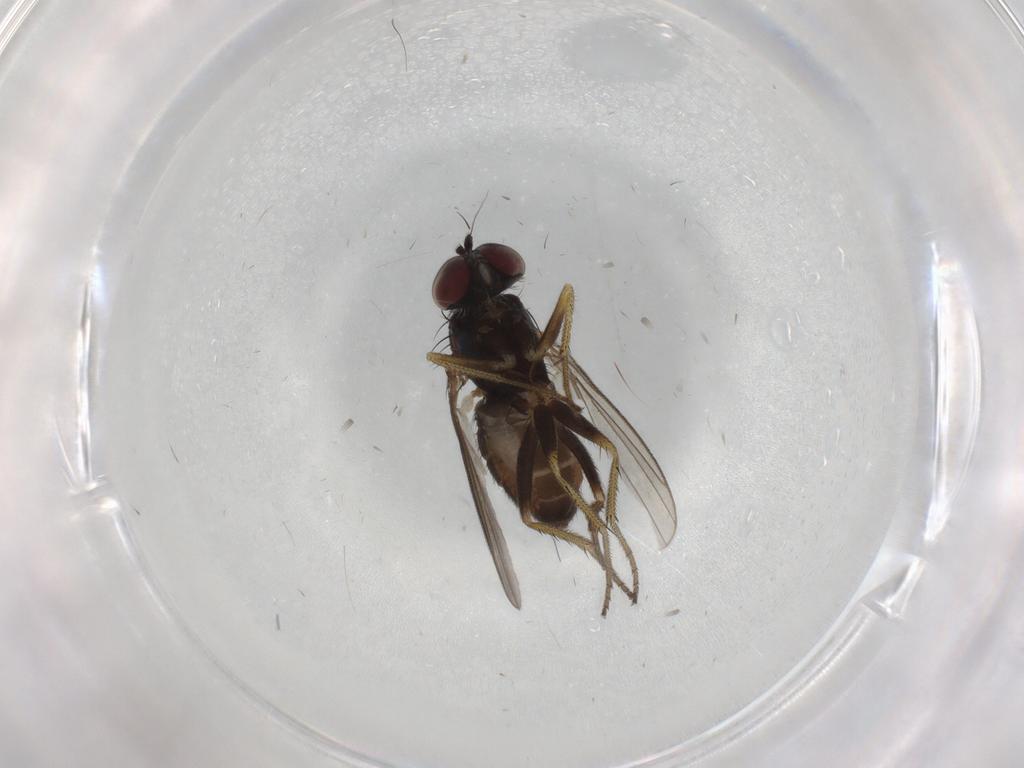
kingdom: Animalia
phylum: Arthropoda
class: Insecta
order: Diptera
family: Dolichopodidae
